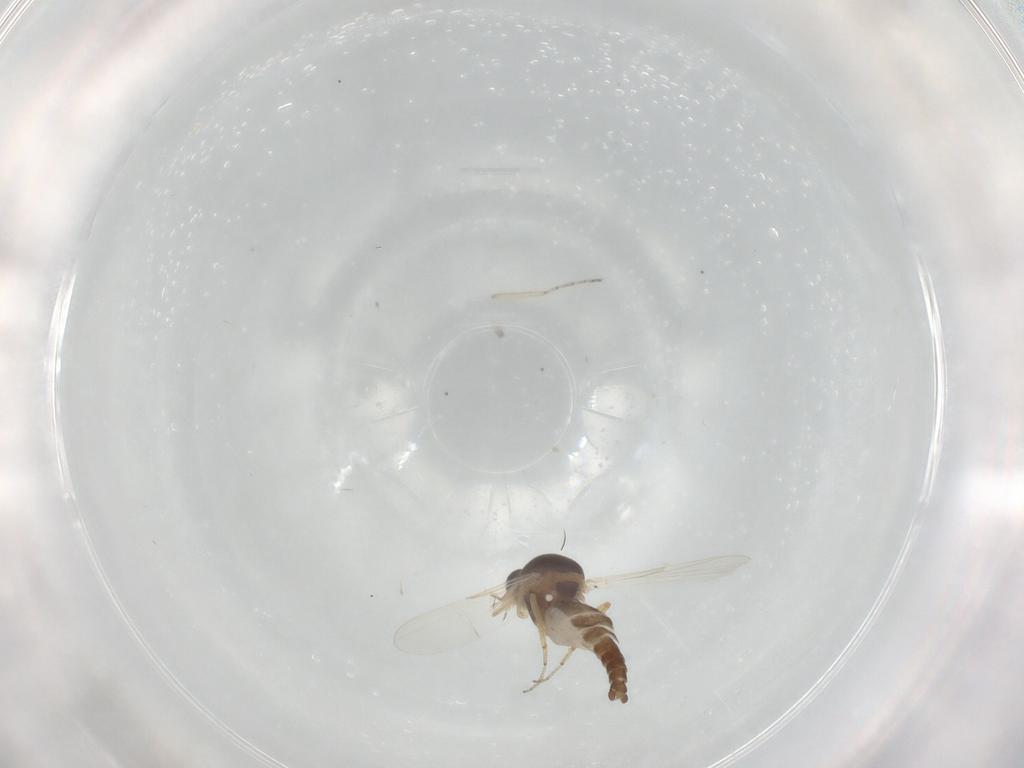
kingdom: Animalia
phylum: Arthropoda
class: Insecta
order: Diptera
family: Ceratopogonidae
